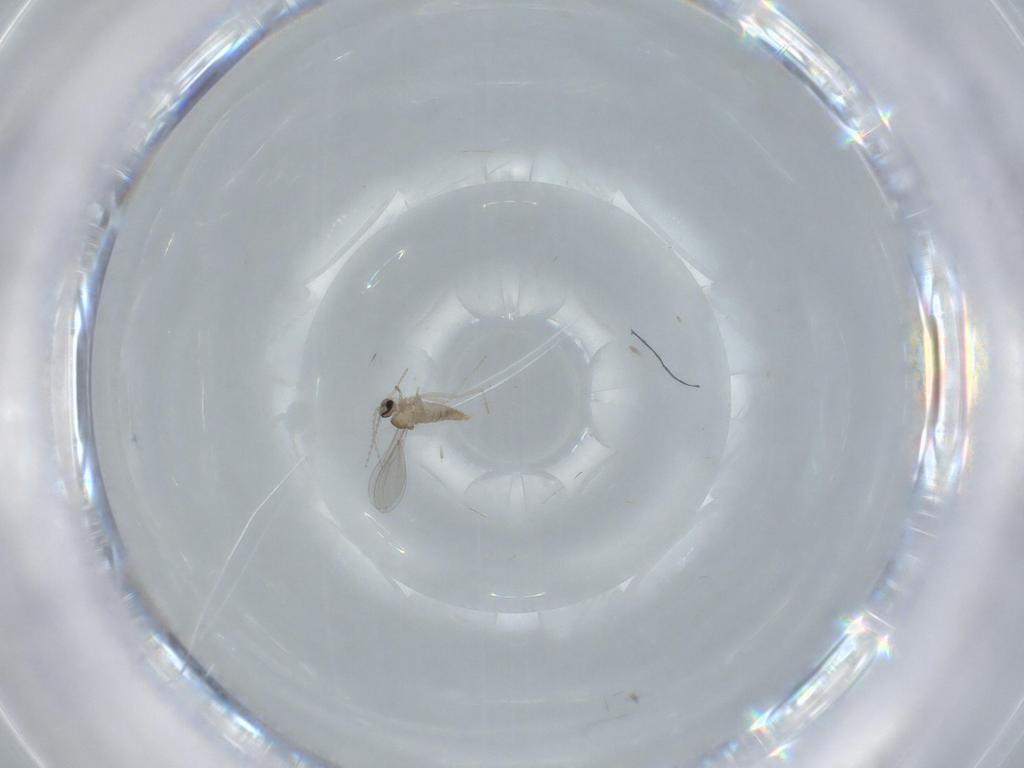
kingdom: Animalia
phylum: Arthropoda
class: Insecta
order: Diptera
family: Cecidomyiidae
